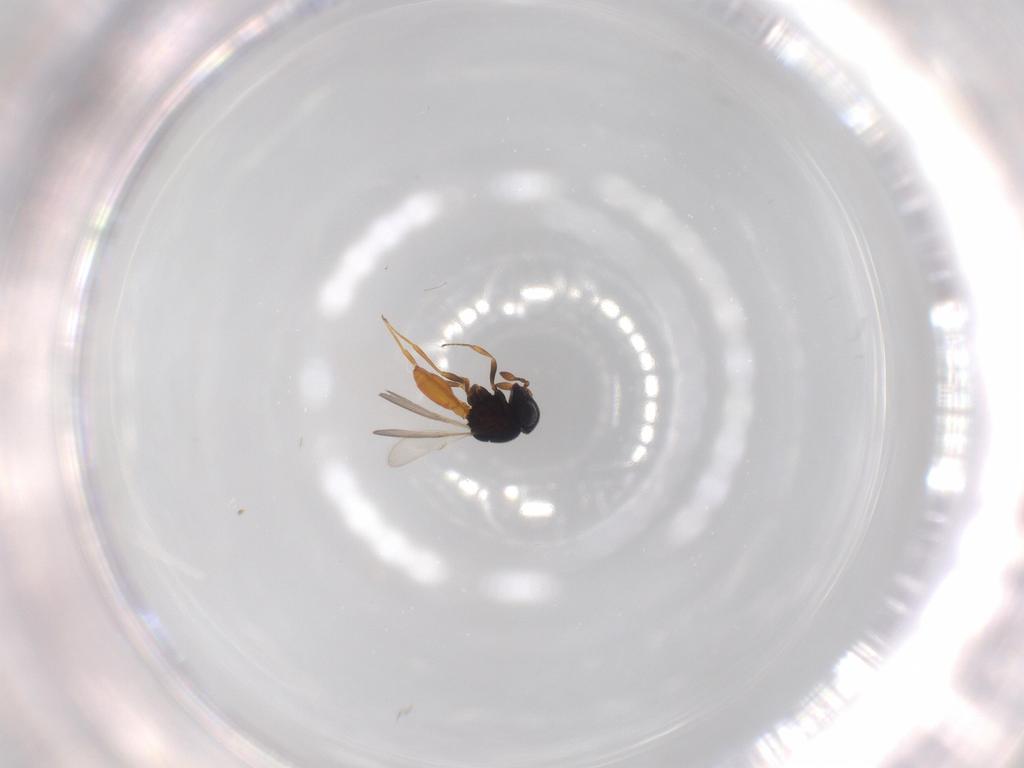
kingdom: Animalia
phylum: Arthropoda
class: Insecta
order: Hymenoptera
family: Scelionidae
